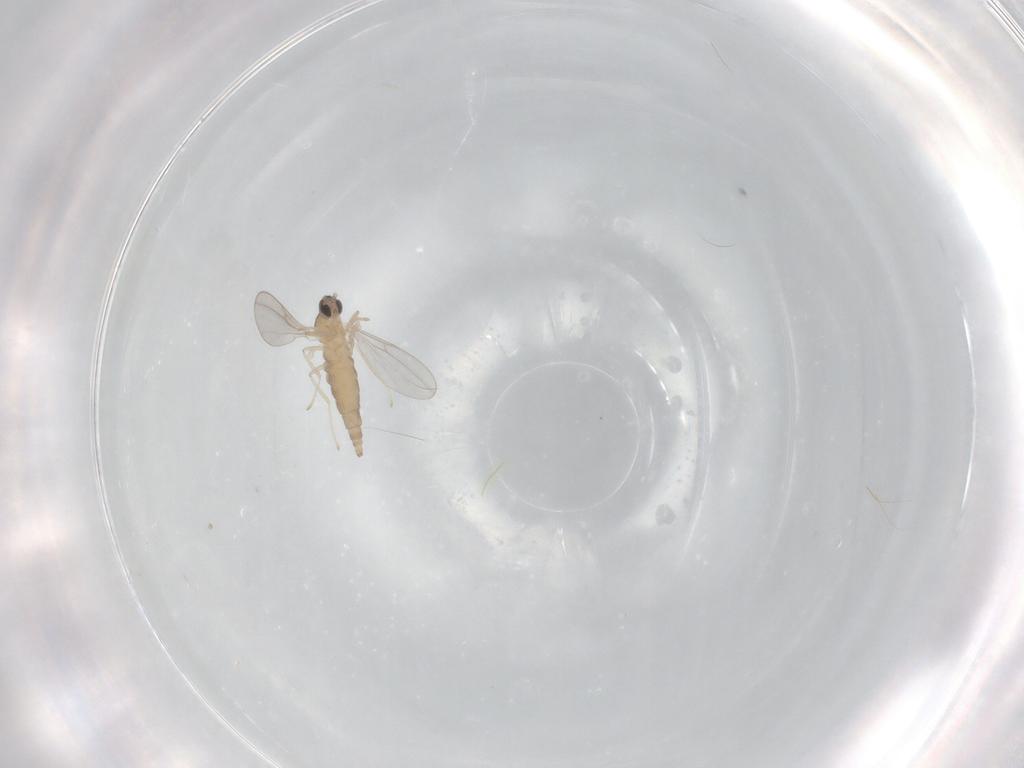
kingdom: Animalia
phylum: Arthropoda
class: Insecta
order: Diptera
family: Cecidomyiidae
